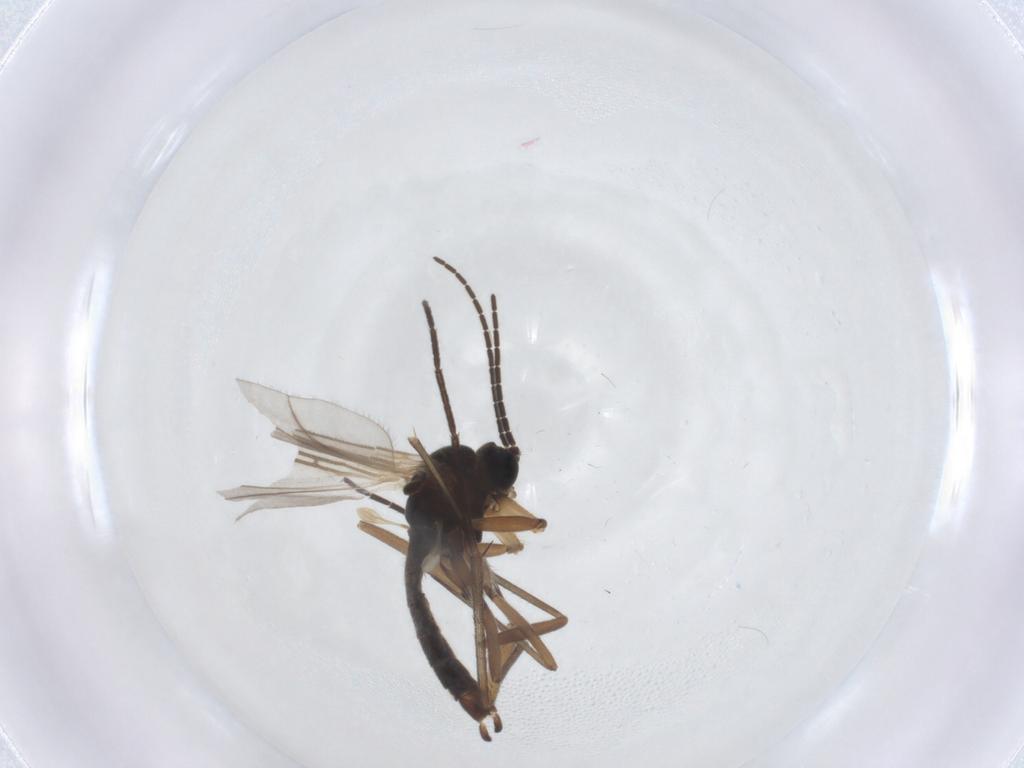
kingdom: Animalia
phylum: Arthropoda
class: Insecta
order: Diptera
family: Sciaridae
